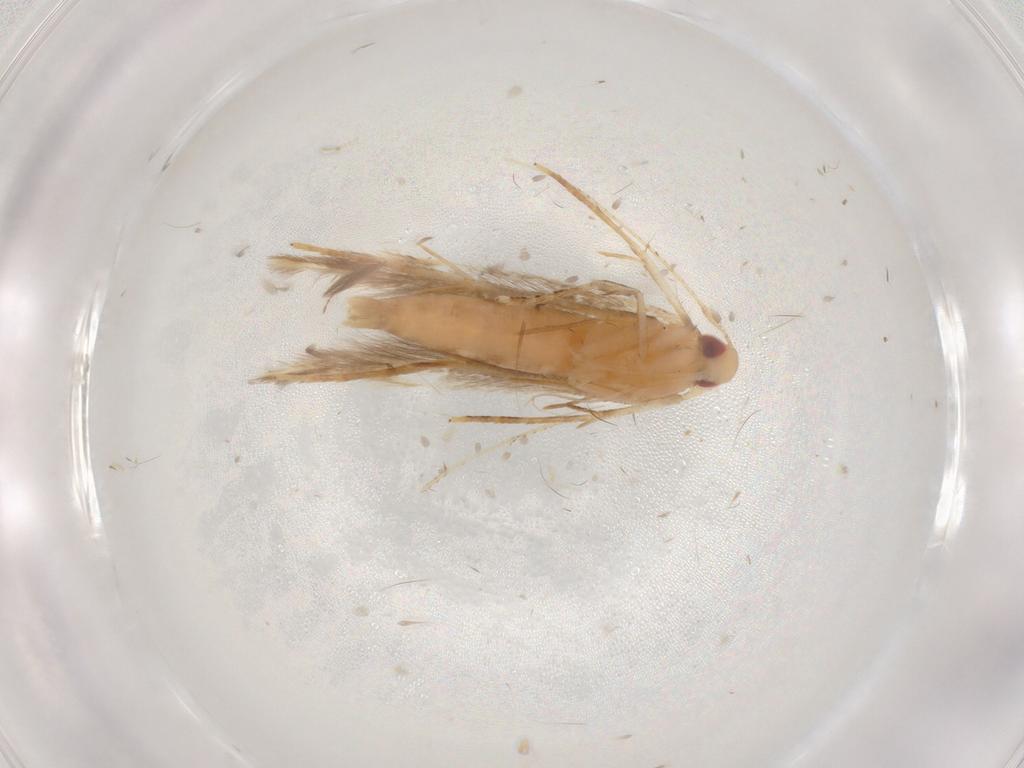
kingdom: Animalia
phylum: Arthropoda
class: Insecta
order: Lepidoptera
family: Gelechiidae
